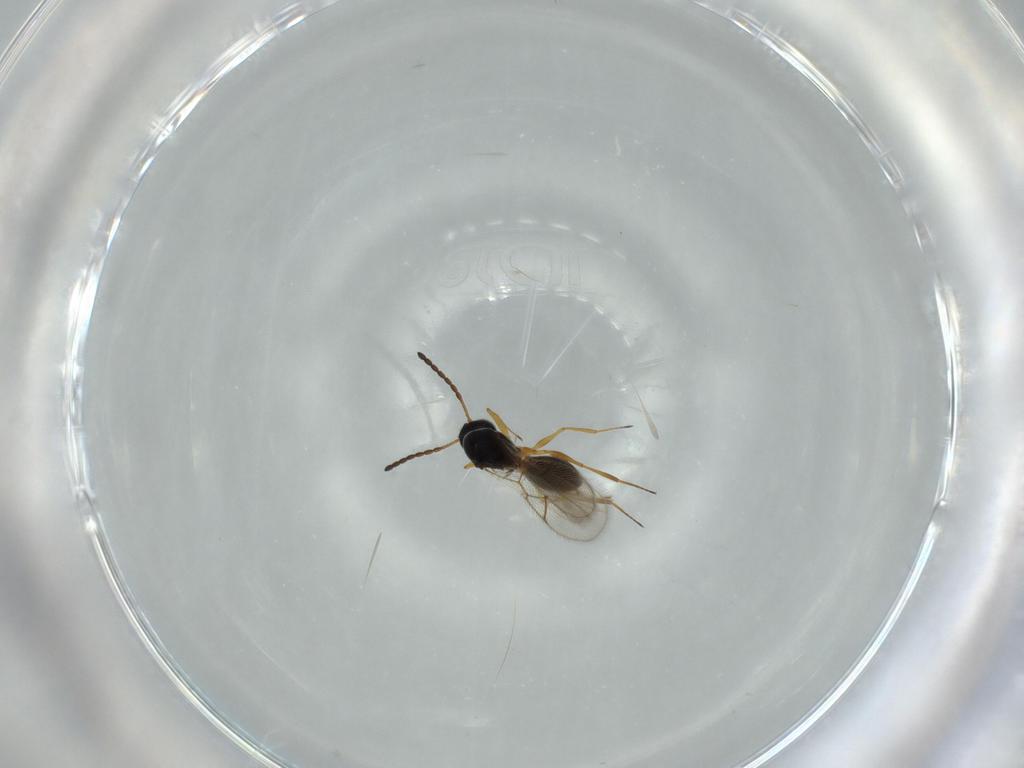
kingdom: Animalia
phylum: Arthropoda
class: Insecta
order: Hymenoptera
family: Figitidae
